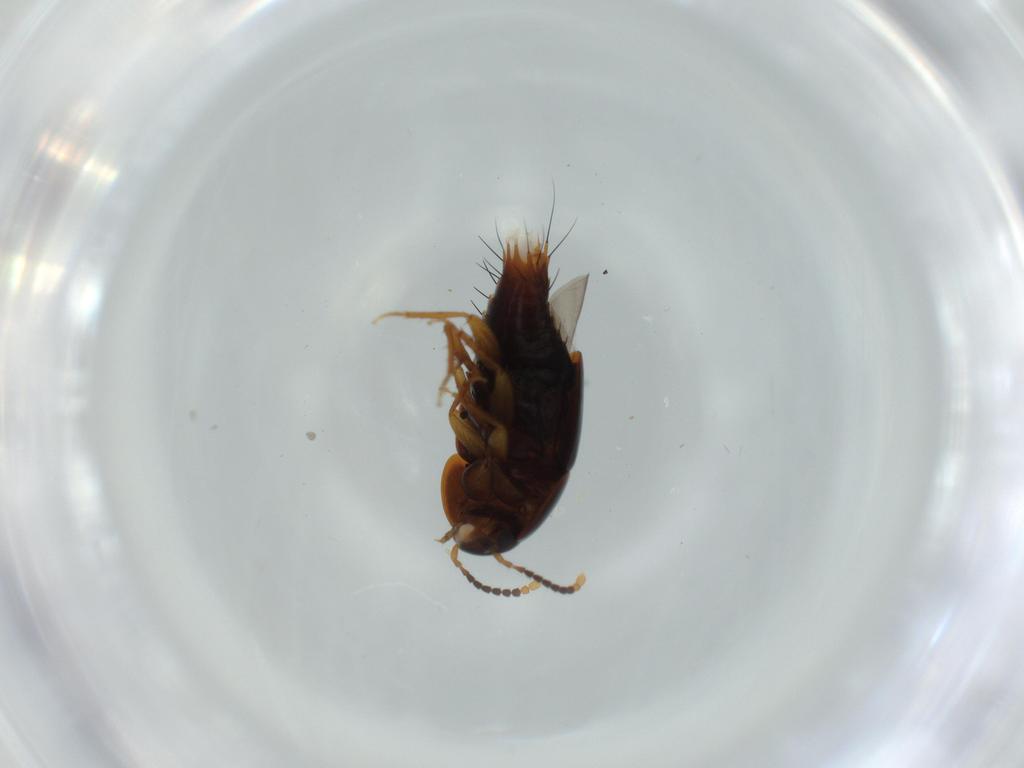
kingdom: Animalia
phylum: Arthropoda
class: Insecta
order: Coleoptera
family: Staphylinidae
